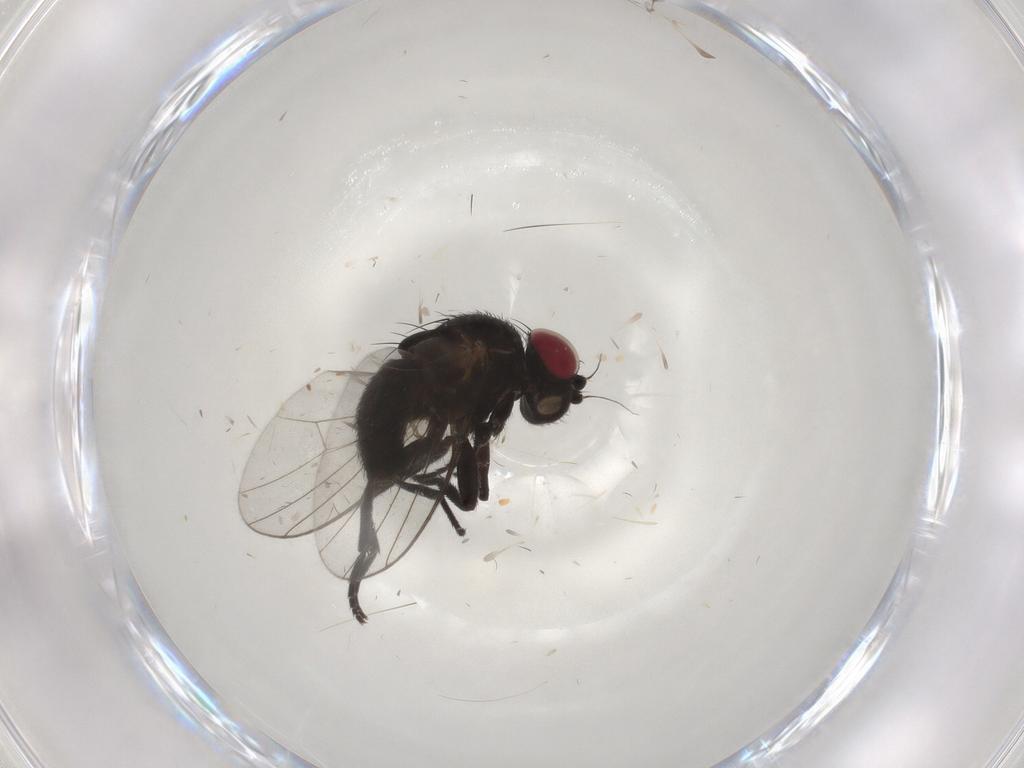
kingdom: Animalia
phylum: Arthropoda
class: Insecta
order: Diptera
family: Agromyzidae
